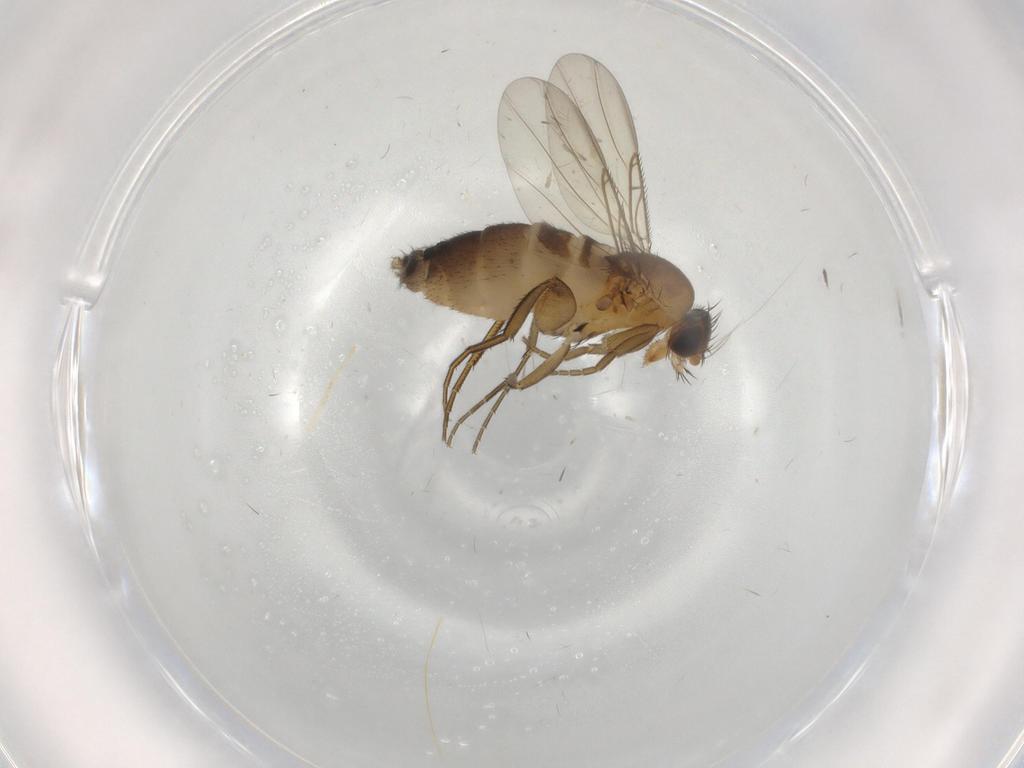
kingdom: Animalia
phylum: Arthropoda
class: Insecta
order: Diptera
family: Phoridae
